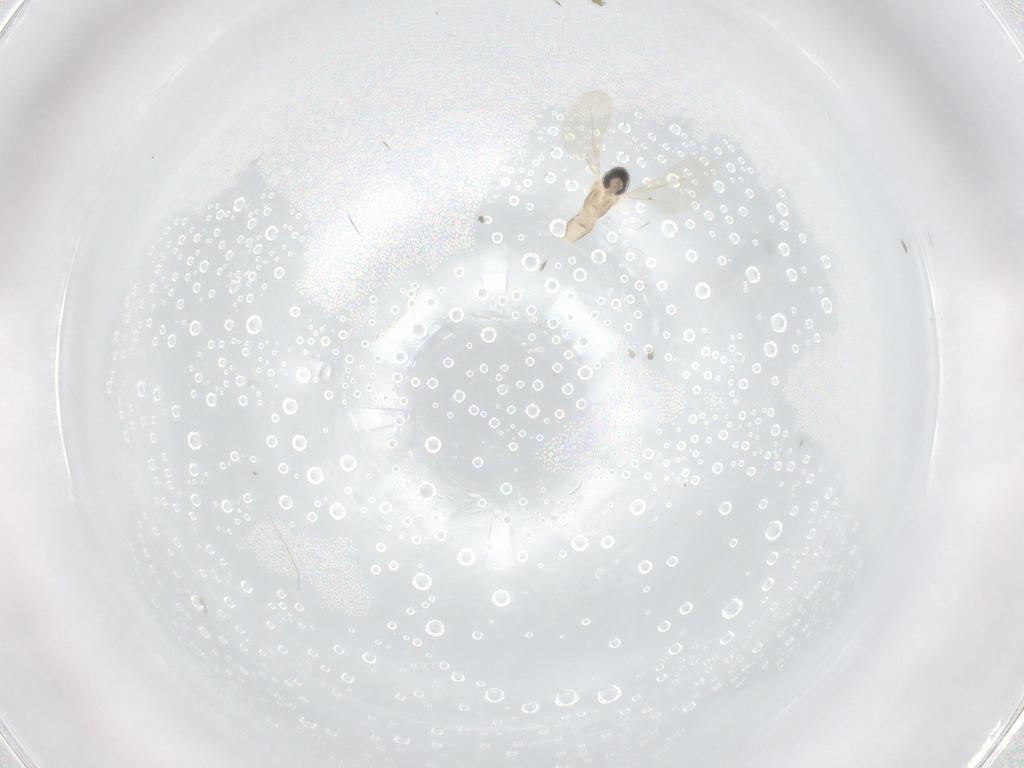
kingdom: Animalia
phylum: Arthropoda
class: Insecta
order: Diptera
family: Cecidomyiidae
